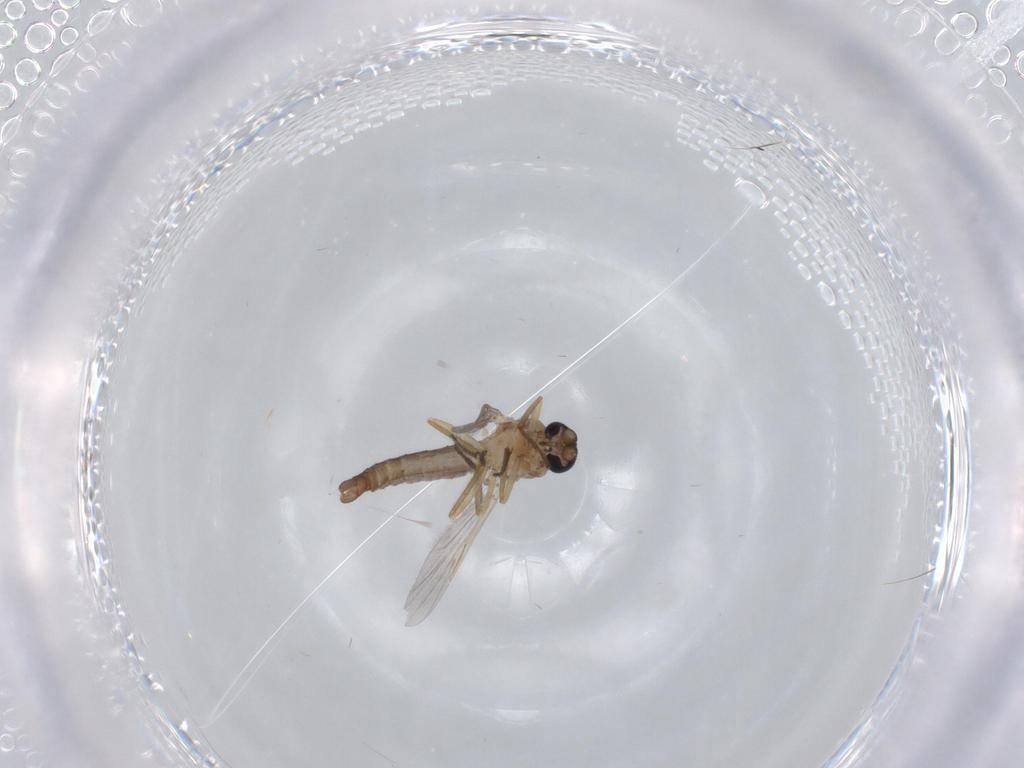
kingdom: Animalia
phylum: Arthropoda
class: Insecta
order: Diptera
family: Ceratopogonidae
